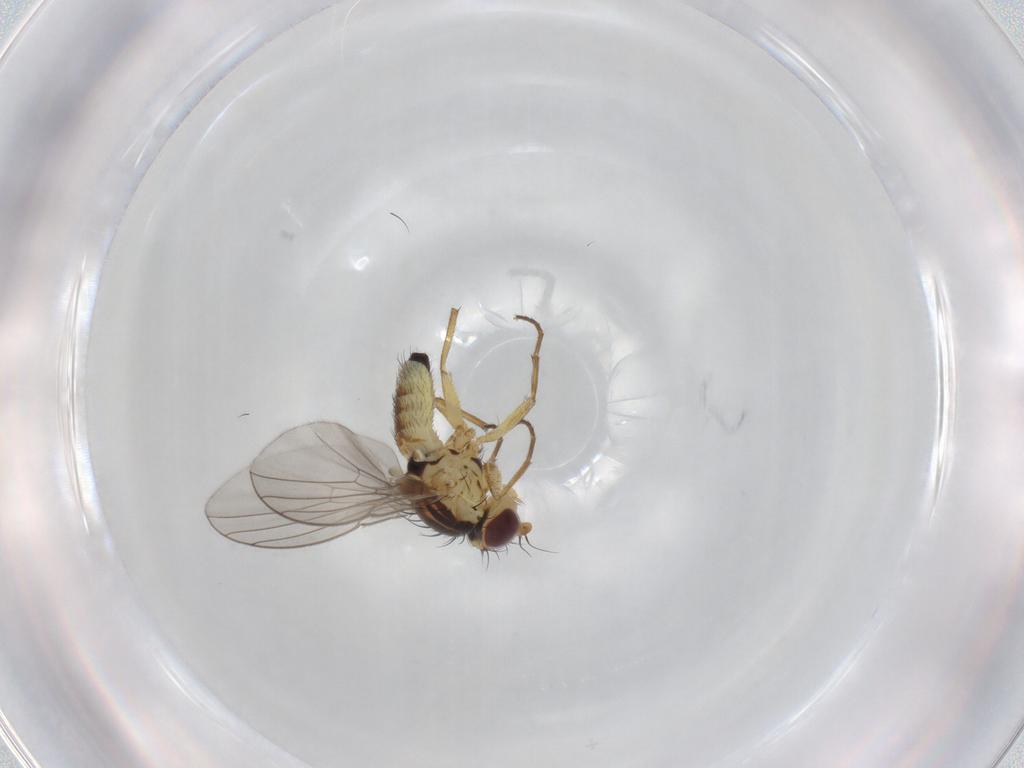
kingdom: Animalia
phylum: Arthropoda
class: Insecta
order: Diptera
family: Agromyzidae
